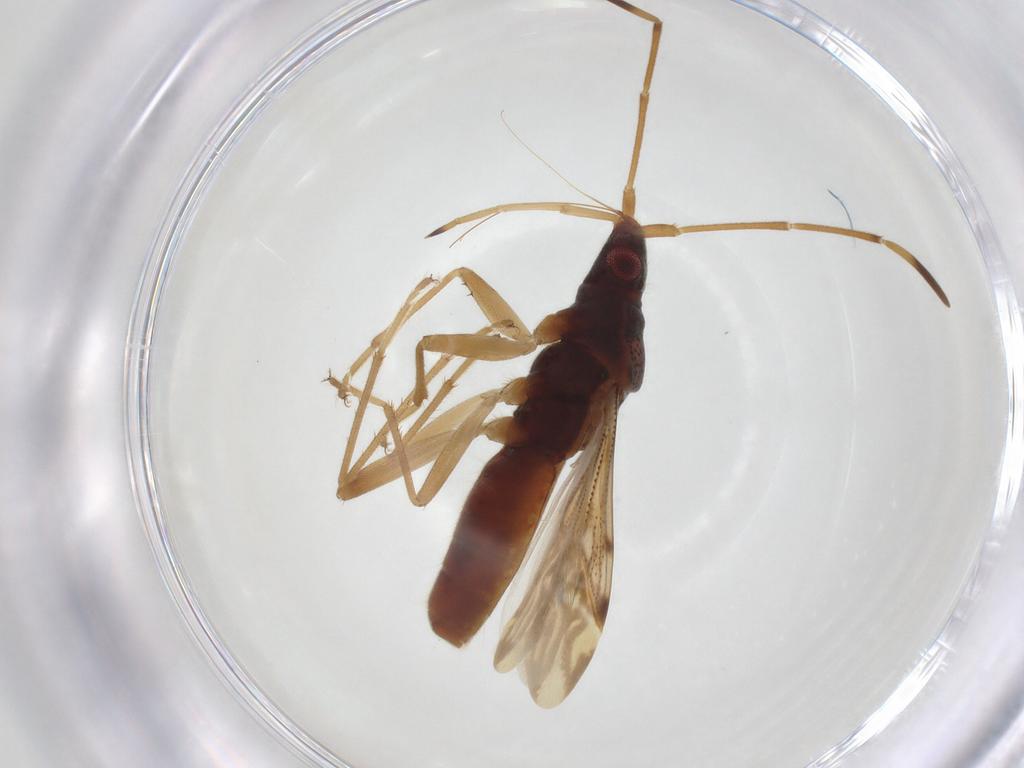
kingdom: Animalia
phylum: Arthropoda
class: Insecta
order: Hemiptera
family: Rhyparochromidae
